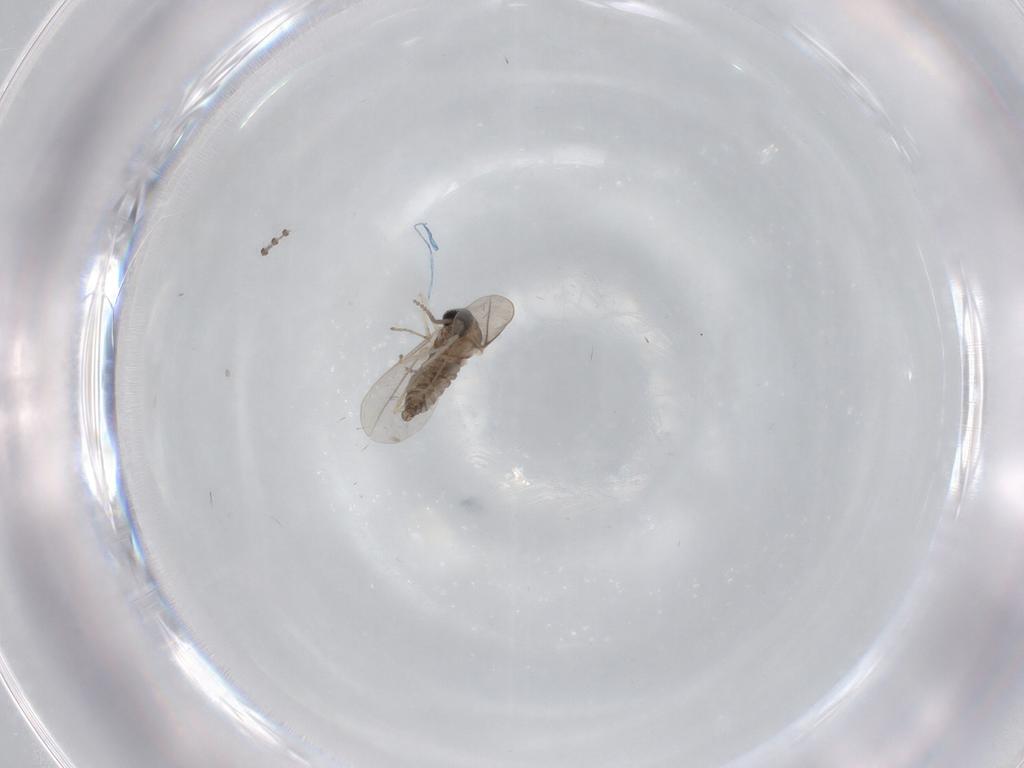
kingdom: Animalia
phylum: Arthropoda
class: Insecta
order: Diptera
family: Cecidomyiidae
